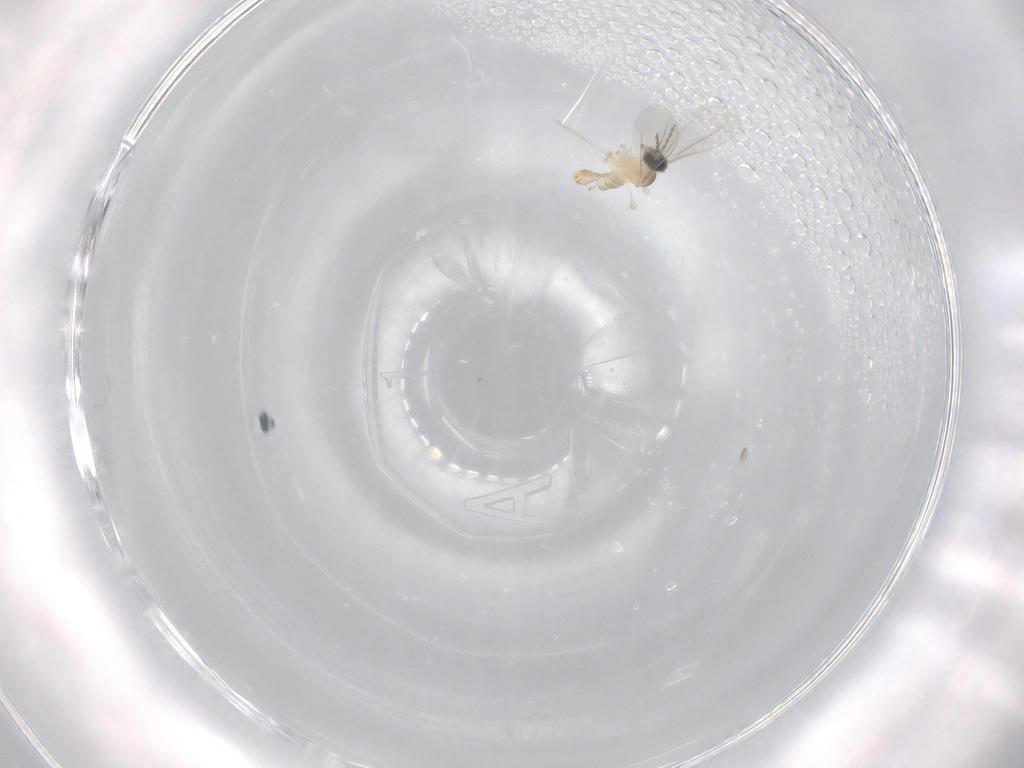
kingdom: Animalia
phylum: Arthropoda
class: Insecta
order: Diptera
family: Cecidomyiidae
